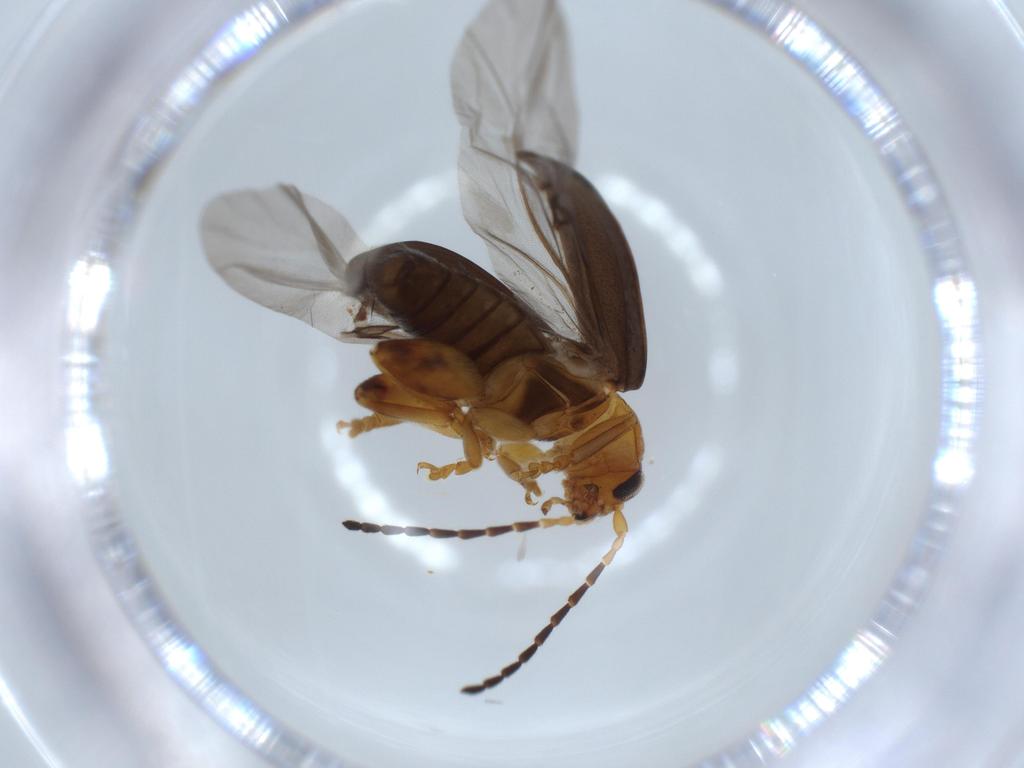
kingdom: Animalia
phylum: Arthropoda
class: Insecta
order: Coleoptera
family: Chrysomelidae
